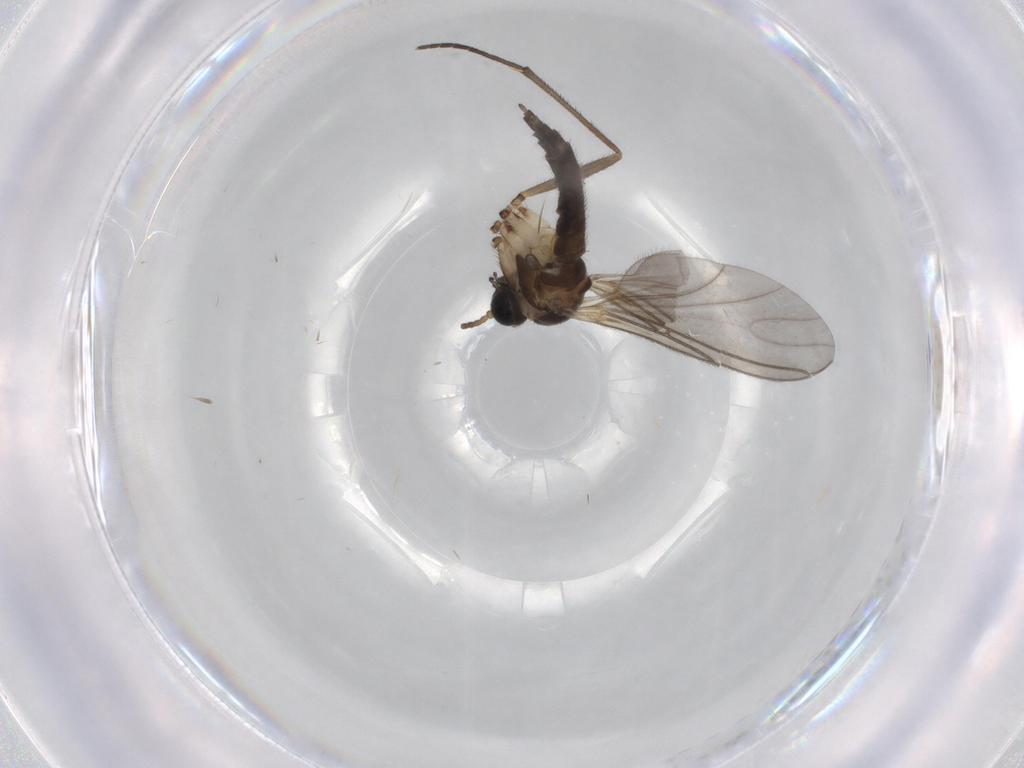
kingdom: Animalia
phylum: Arthropoda
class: Insecta
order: Diptera
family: Sciaridae
